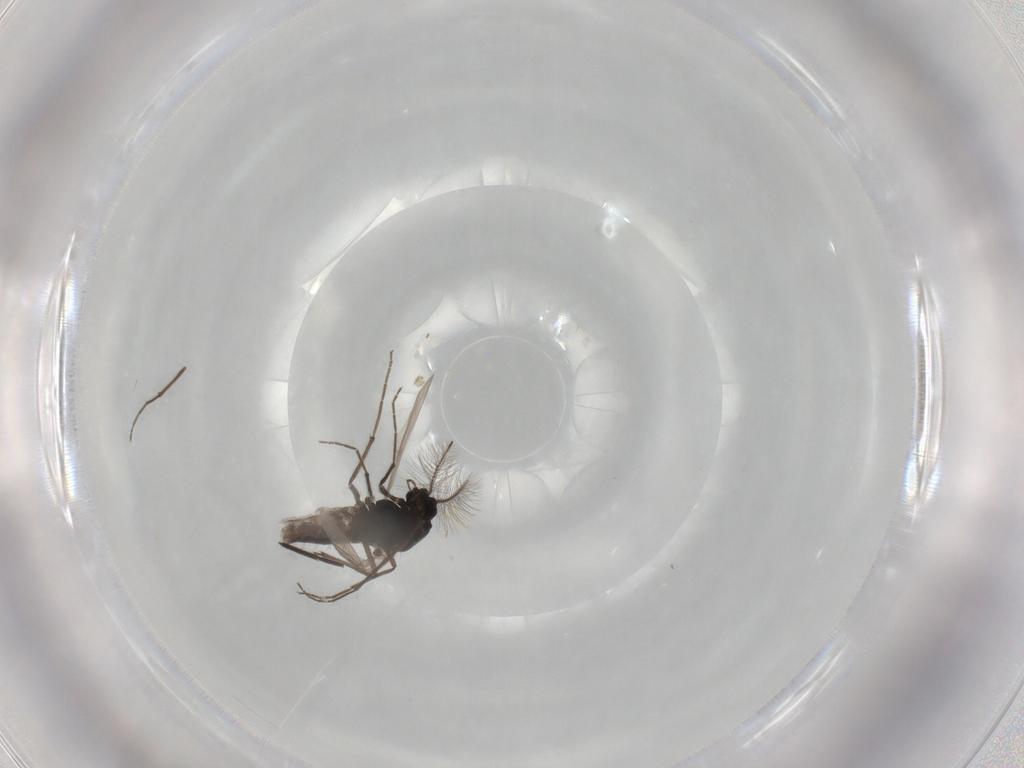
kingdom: Animalia
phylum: Arthropoda
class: Insecta
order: Diptera
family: Chironomidae
